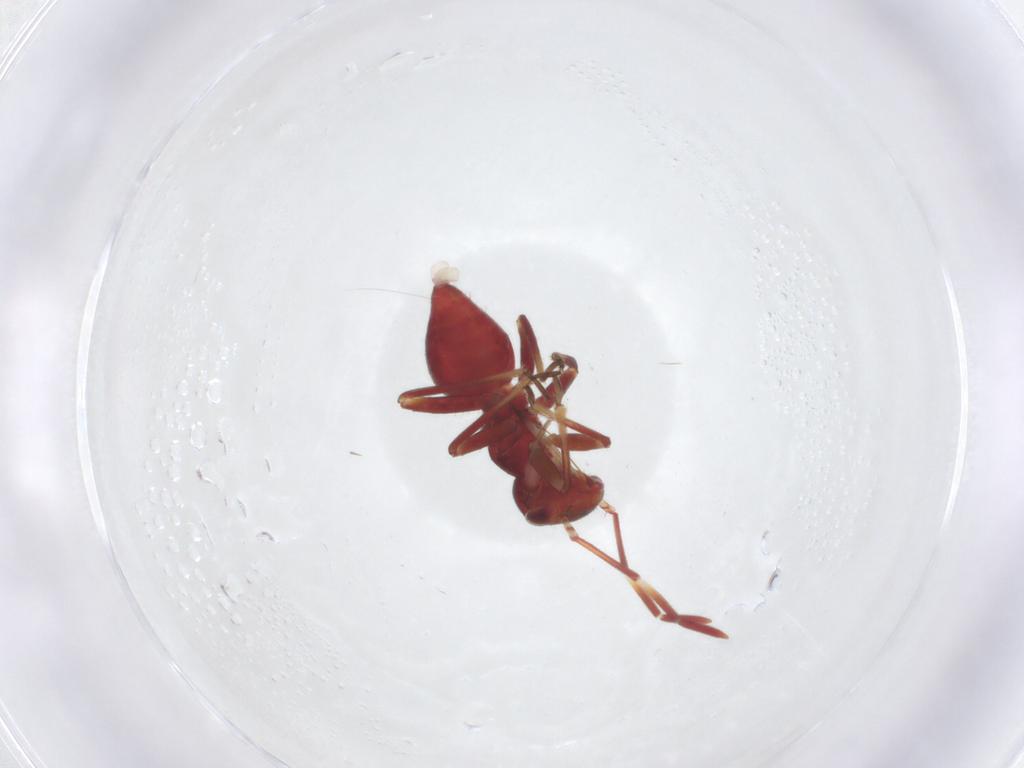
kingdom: Animalia
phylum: Arthropoda
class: Insecta
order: Hemiptera
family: Miridae
